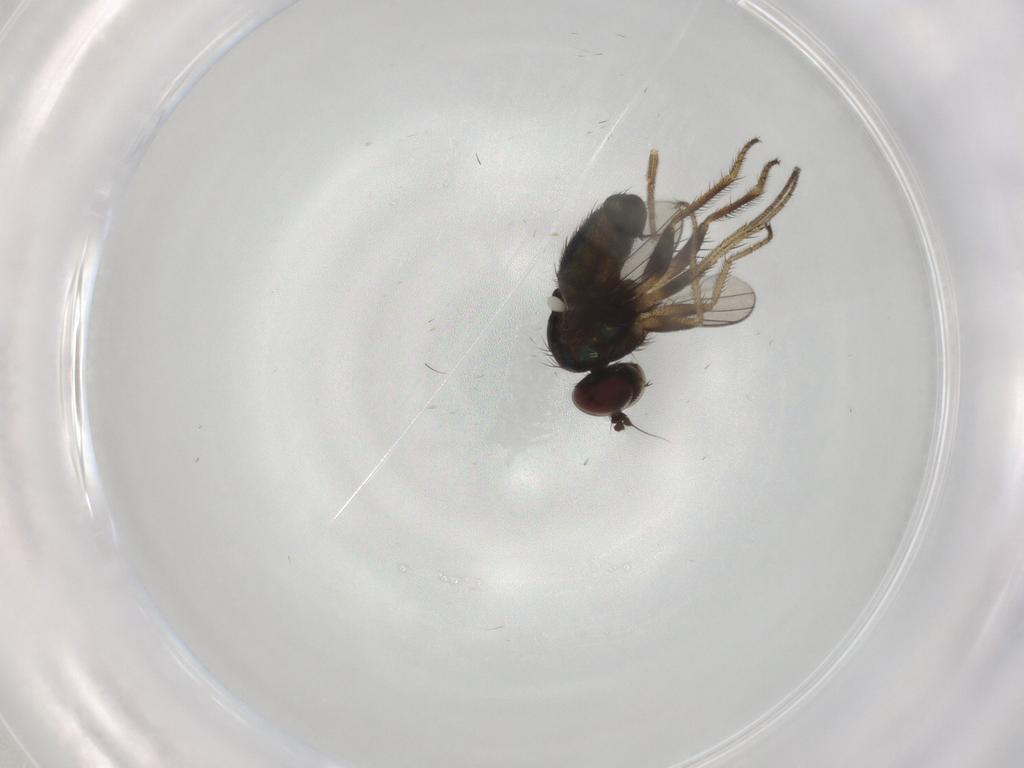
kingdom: Animalia
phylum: Arthropoda
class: Insecta
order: Diptera
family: Dolichopodidae
